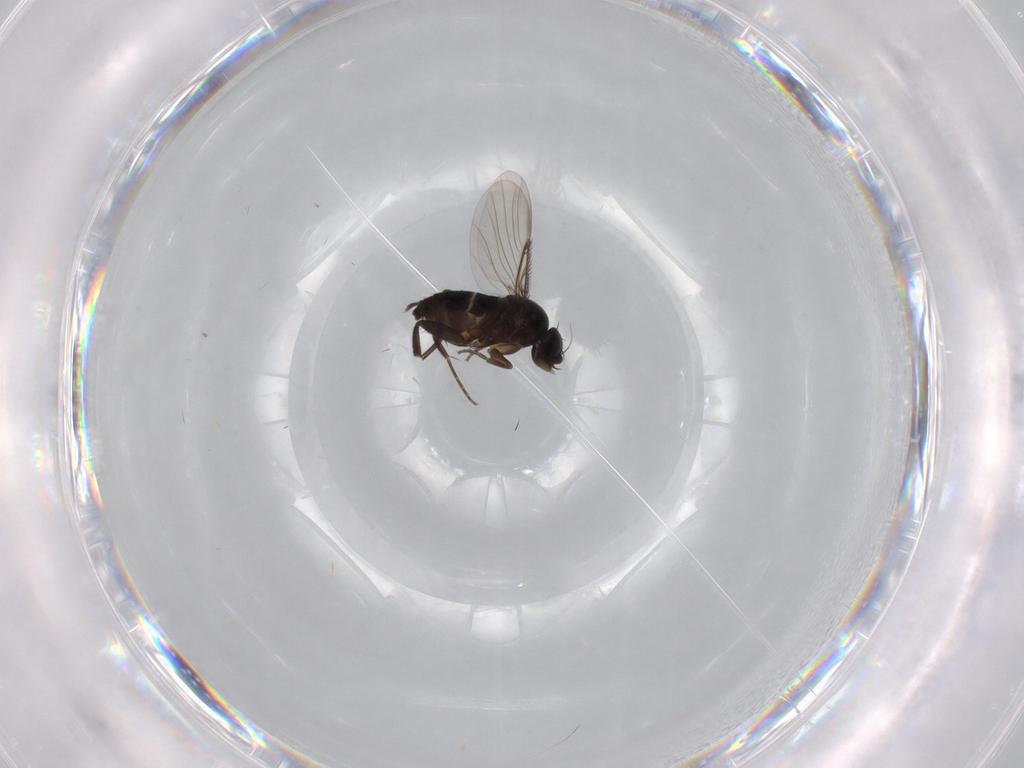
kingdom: Animalia
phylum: Arthropoda
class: Insecta
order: Diptera
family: Phoridae
